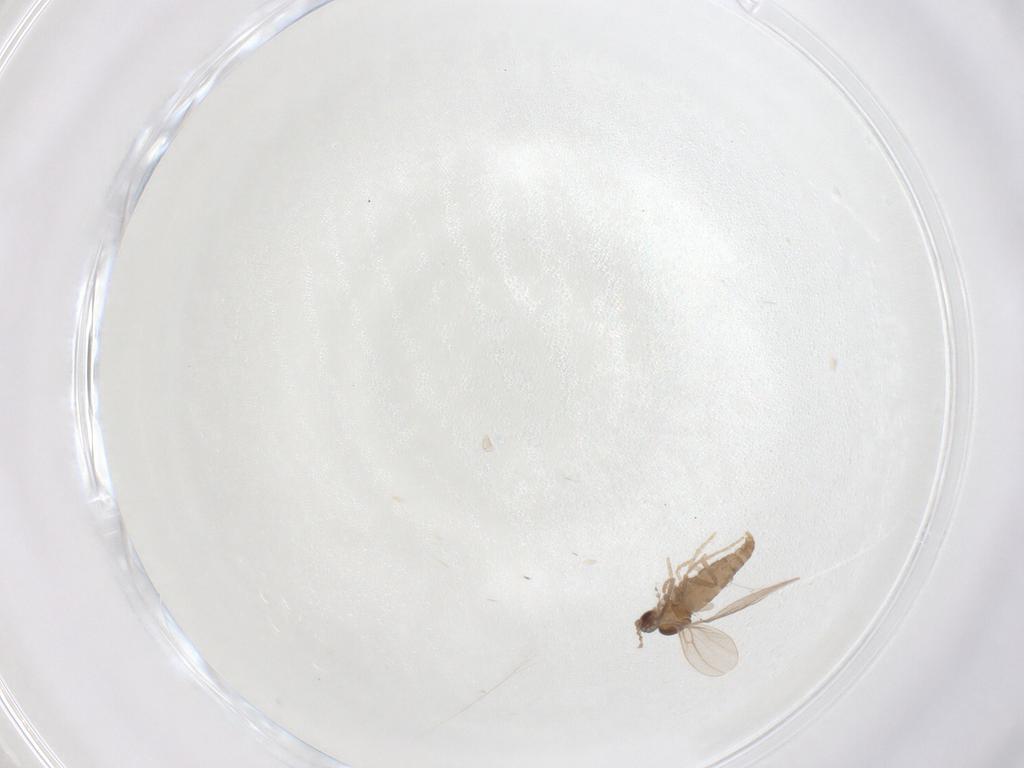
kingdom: Animalia
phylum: Arthropoda
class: Insecta
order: Diptera
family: Cecidomyiidae
